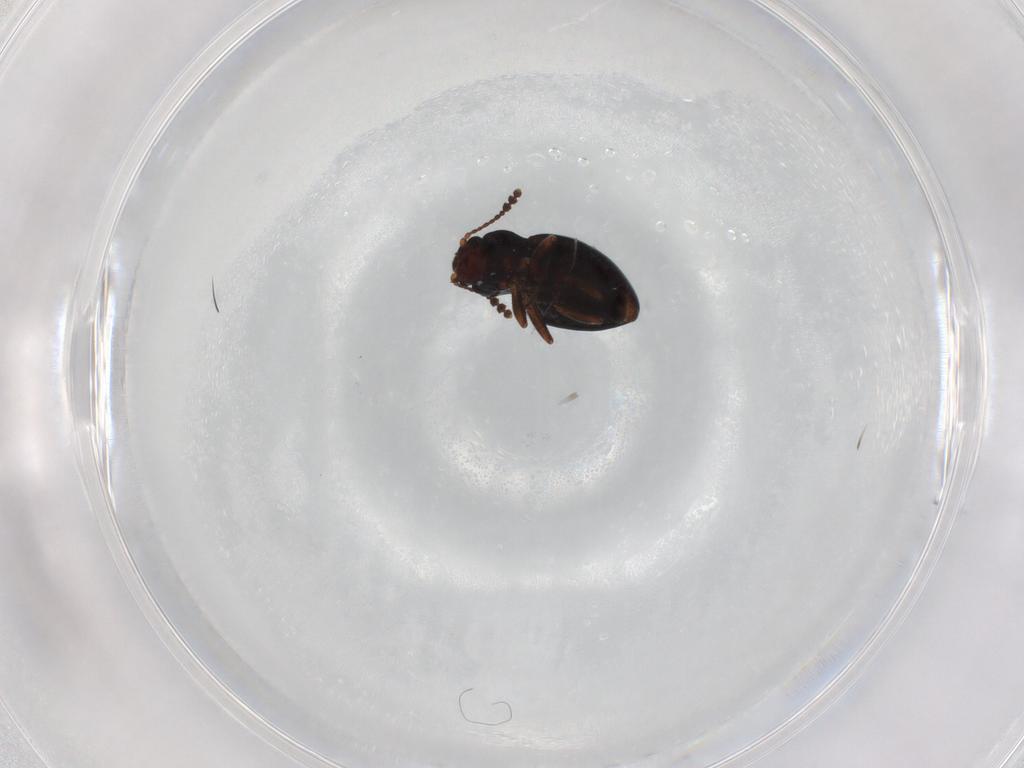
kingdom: Animalia
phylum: Arthropoda
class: Insecta
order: Coleoptera
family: Erotylidae
